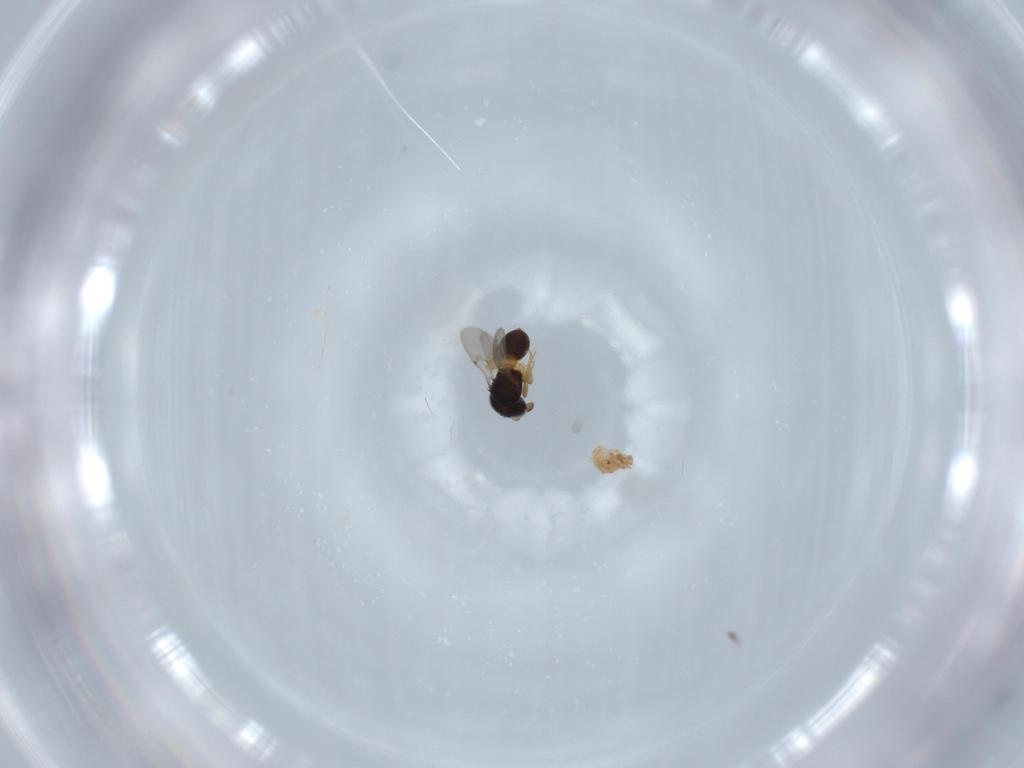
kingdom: Animalia
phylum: Arthropoda
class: Insecta
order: Hymenoptera
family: Scelionidae
